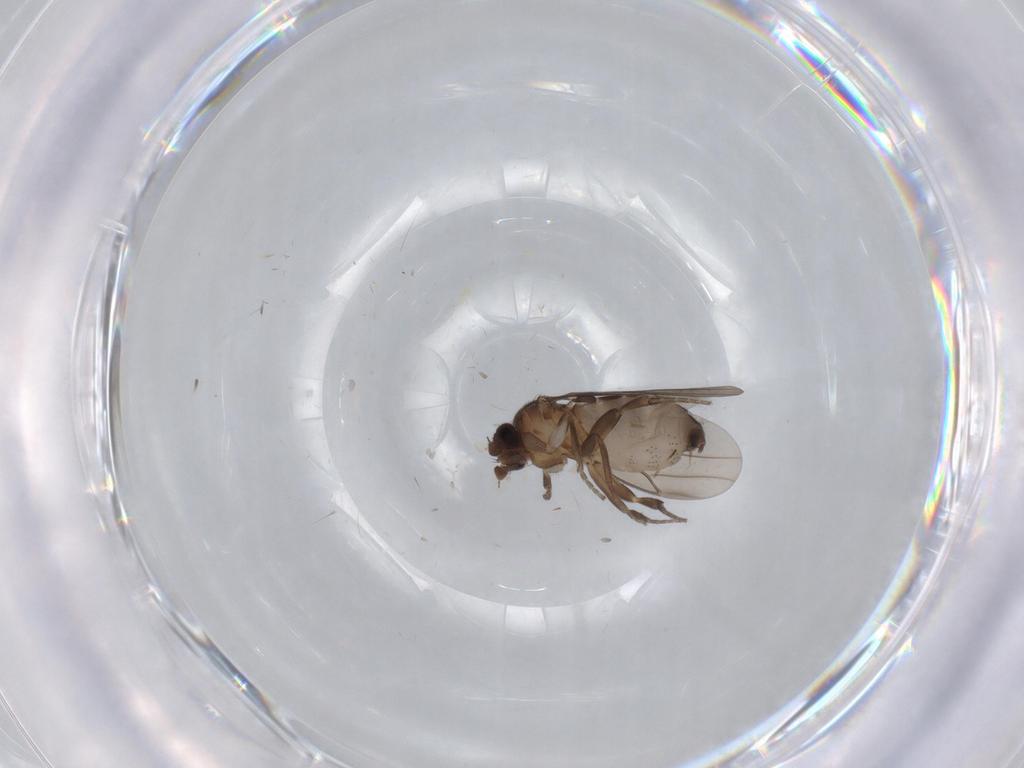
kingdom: Animalia
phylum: Arthropoda
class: Insecta
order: Diptera
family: Chironomidae
